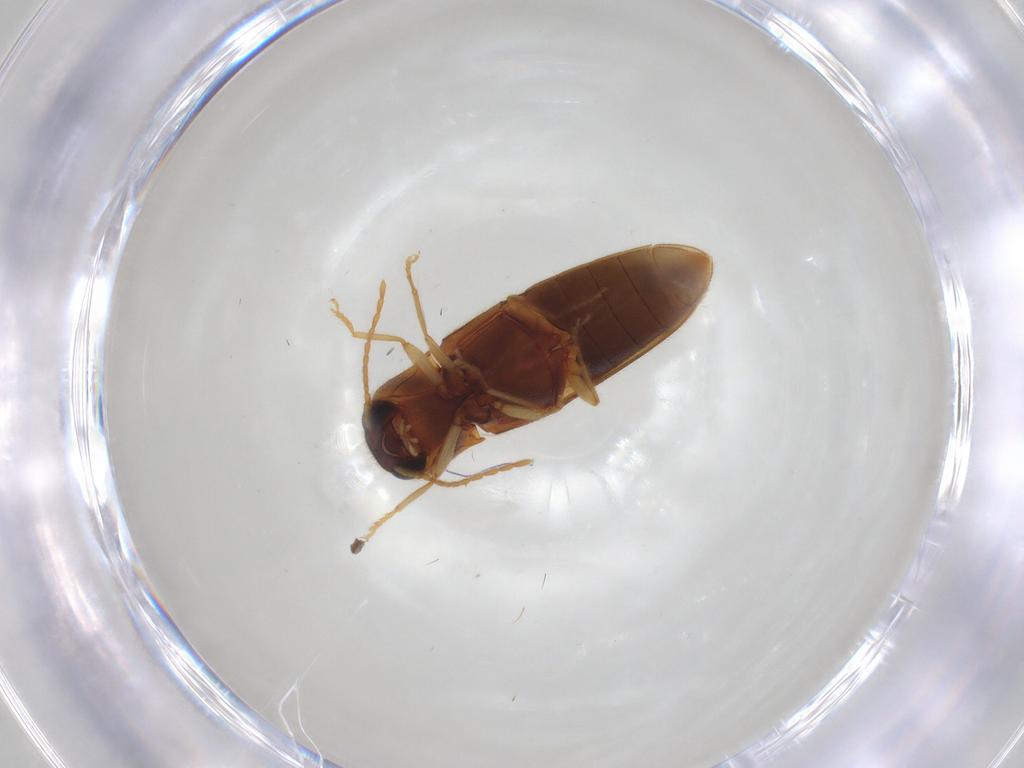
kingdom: Animalia
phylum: Arthropoda
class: Insecta
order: Coleoptera
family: Elateridae
